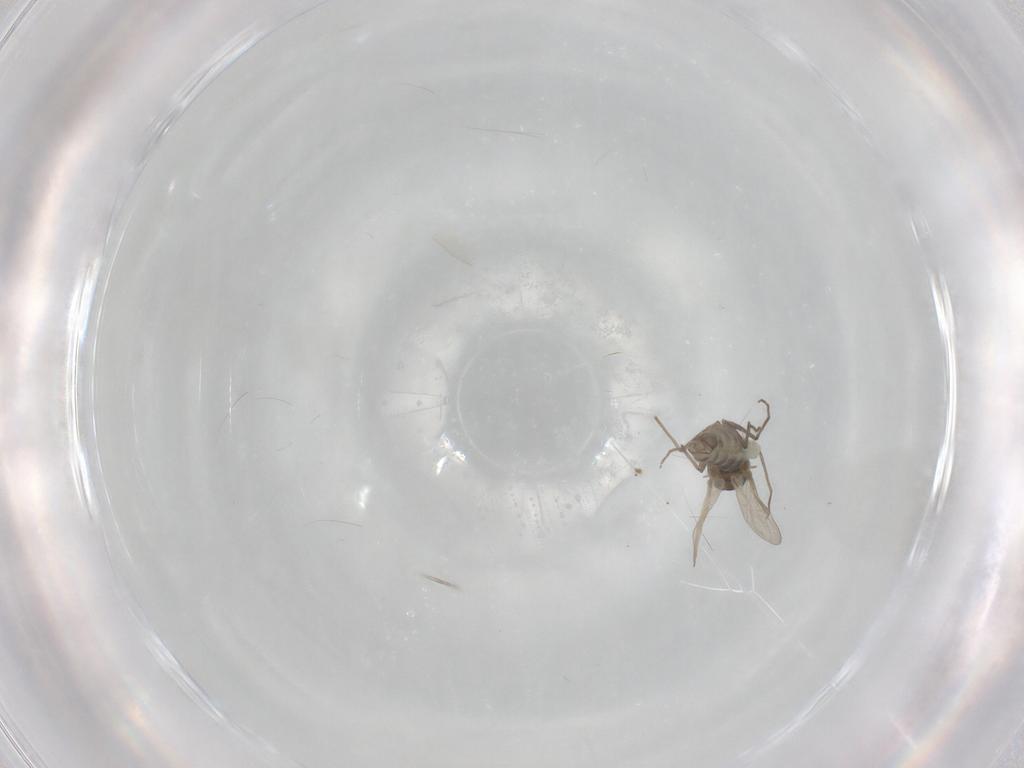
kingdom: Animalia
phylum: Arthropoda
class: Insecta
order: Diptera
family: Chironomidae
